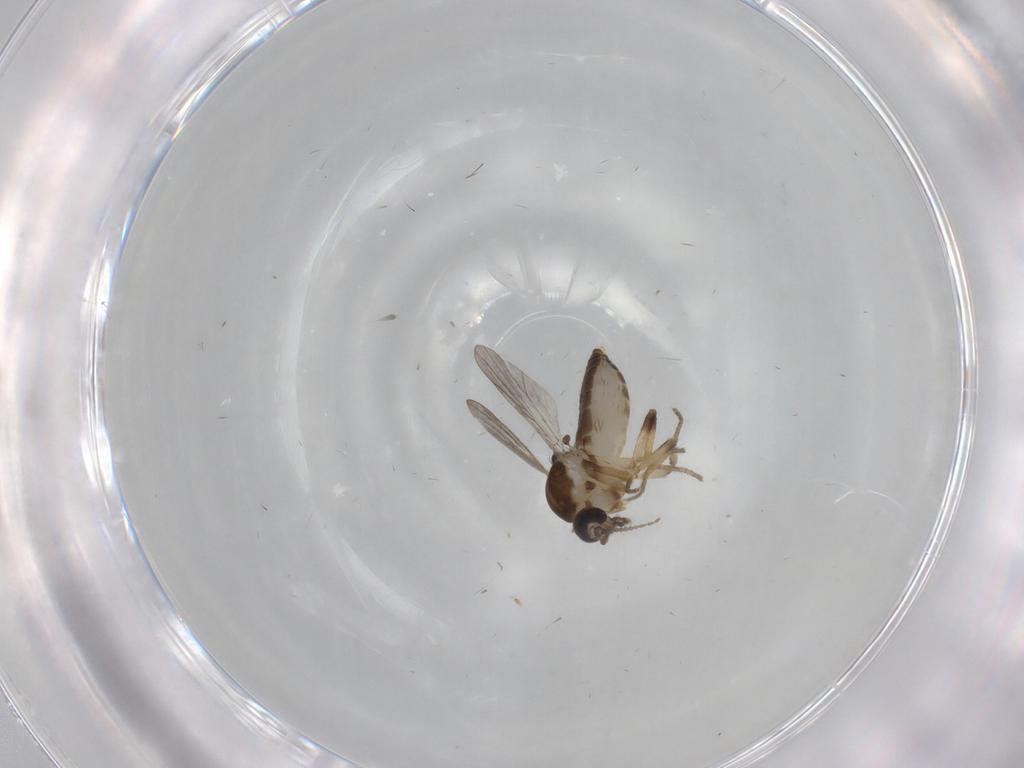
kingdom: Animalia
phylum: Arthropoda
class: Insecta
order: Diptera
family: Ceratopogonidae
